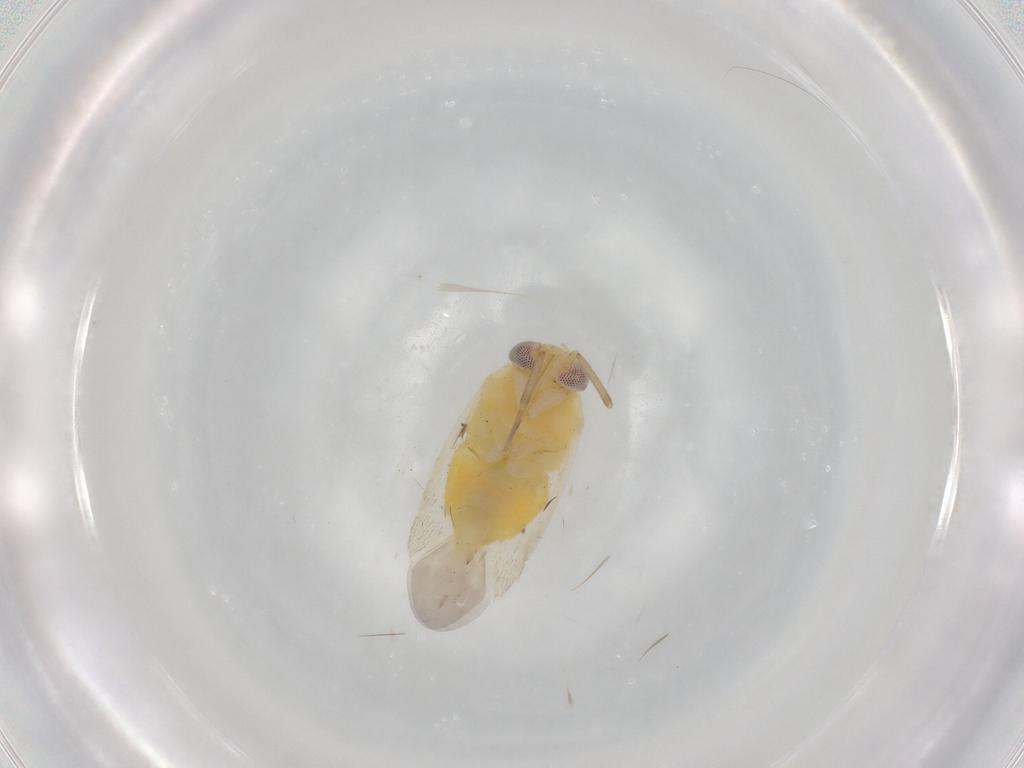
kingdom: Animalia
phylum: Arthropoda
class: Insecta
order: Hemiptera
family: Miridae
